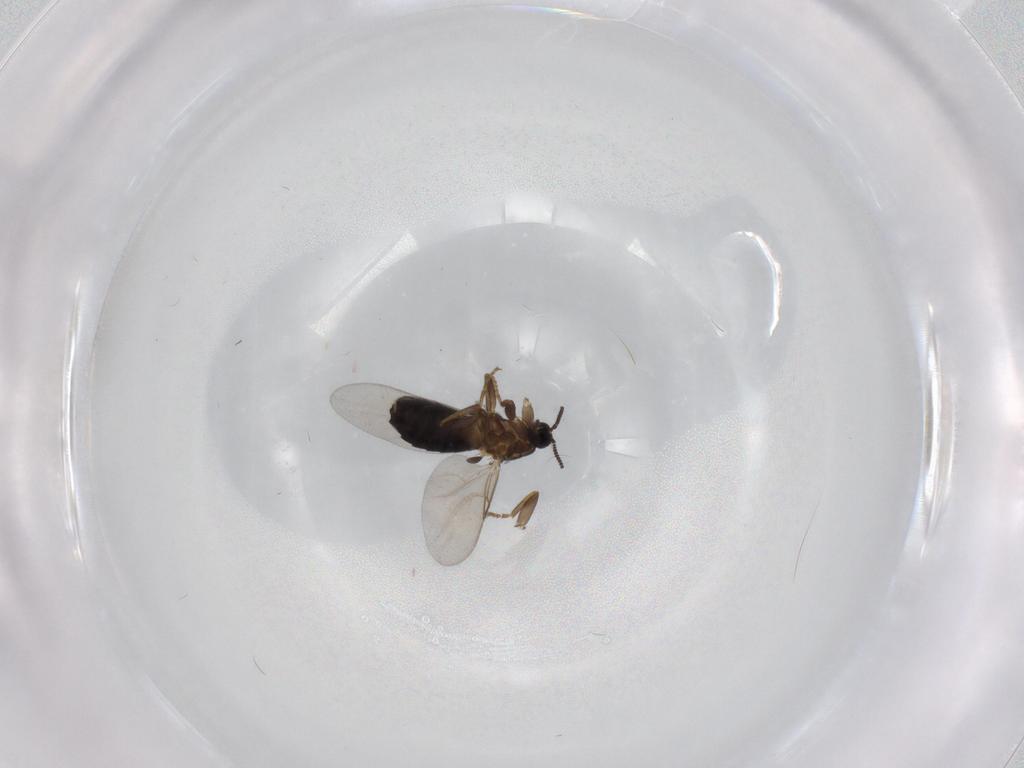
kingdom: Animalia
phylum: Arthropoda
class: Insecta
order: Diptera
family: Scatopsidae
